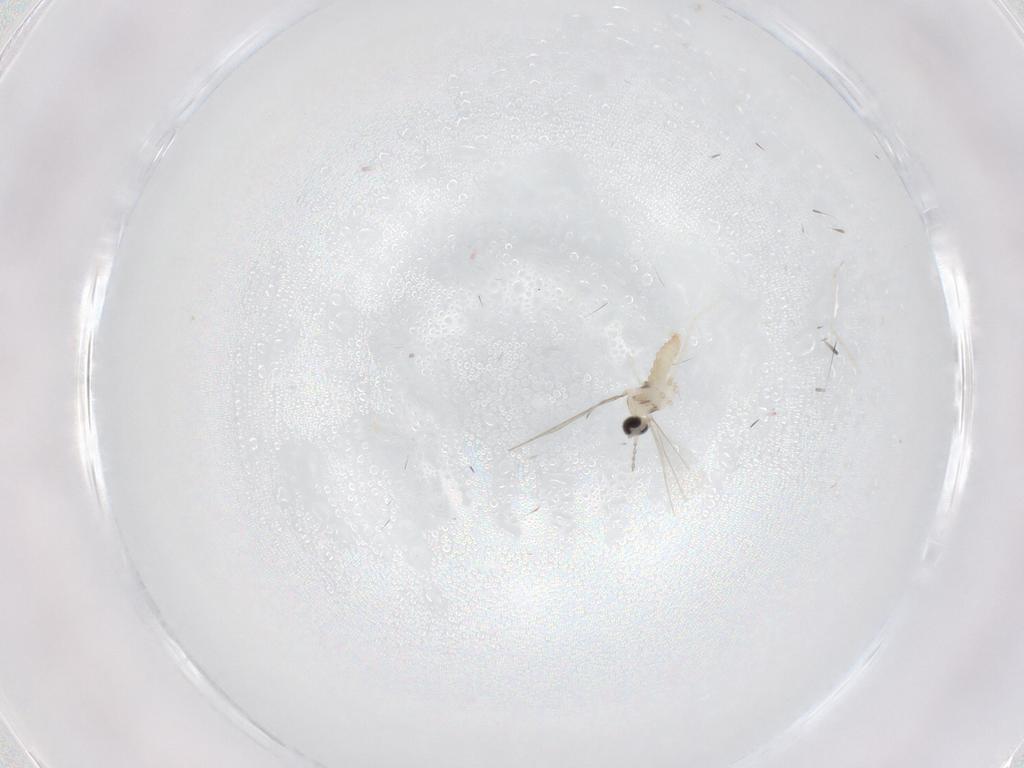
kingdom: Animalia
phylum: Arthropoda
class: Insecta
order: Diptera
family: Cecidomyiidae
